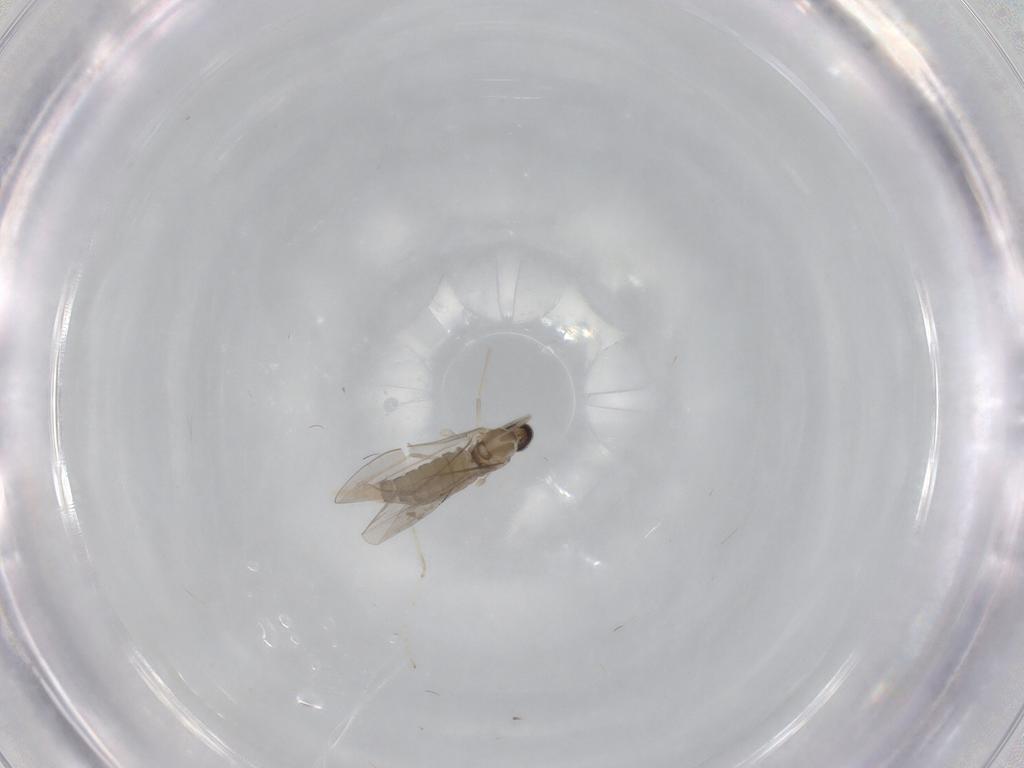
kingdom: Animalia
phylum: Arthropoda
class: Insecta
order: Diptera
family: Cecidomyiidae
